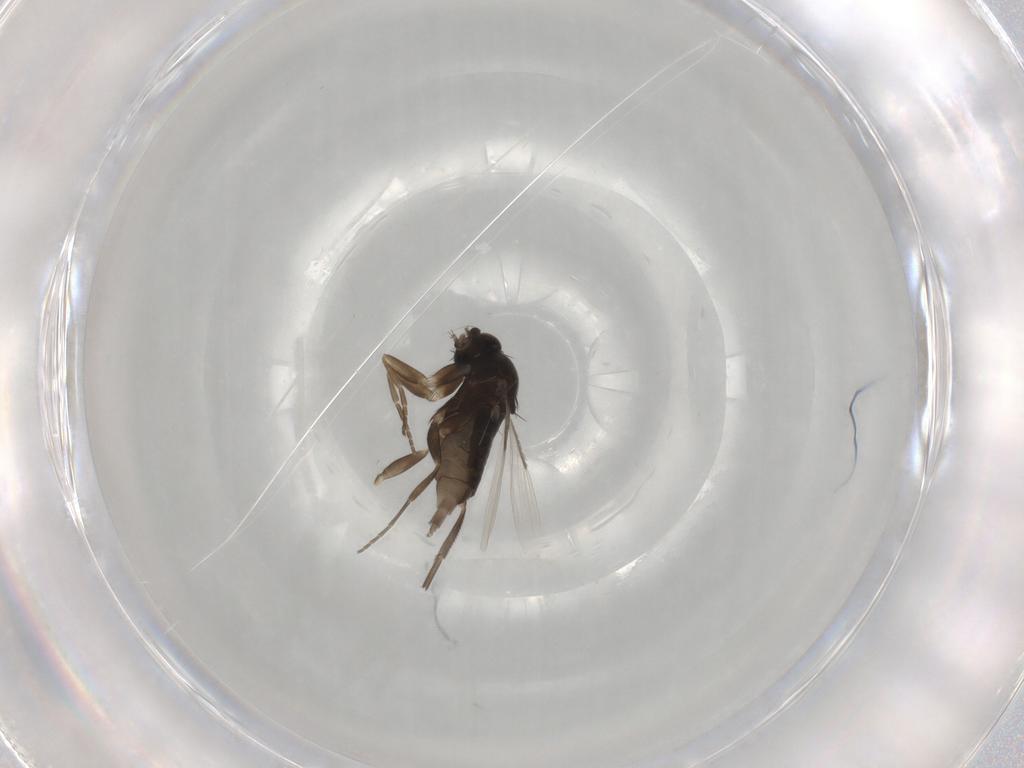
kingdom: Animalia
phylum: Arthropoda
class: Insecta
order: Diptera
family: Phoridae
